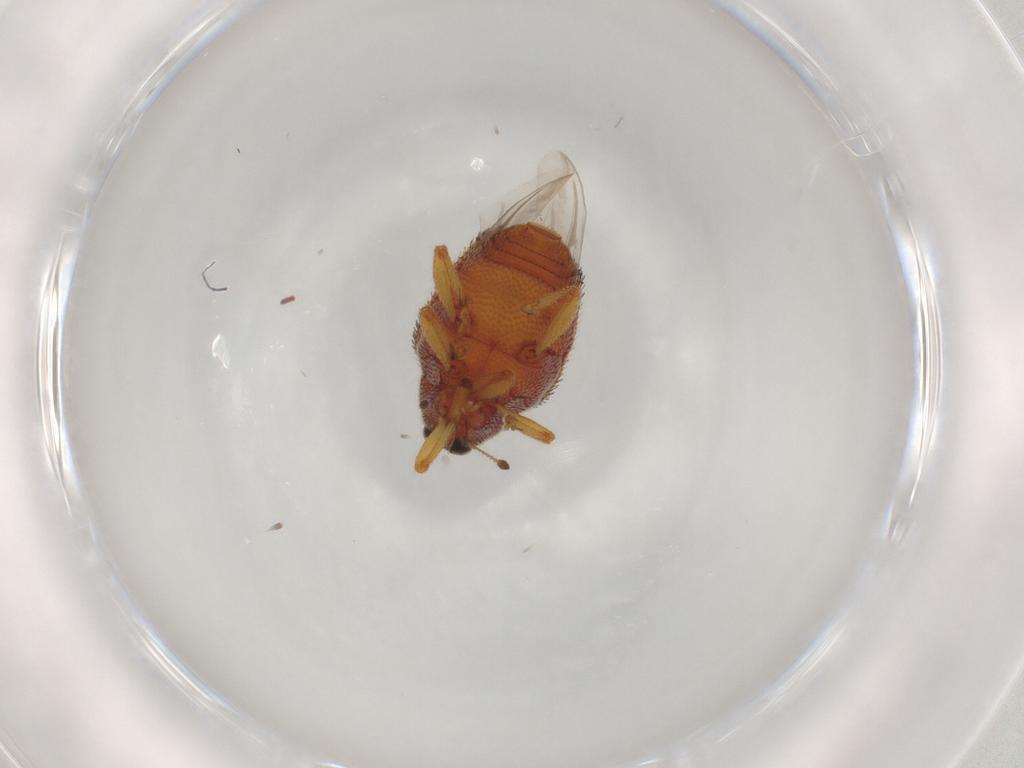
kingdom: Animalia
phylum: Arthropoda
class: Insecta
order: Coleoptera
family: Curculionidae
